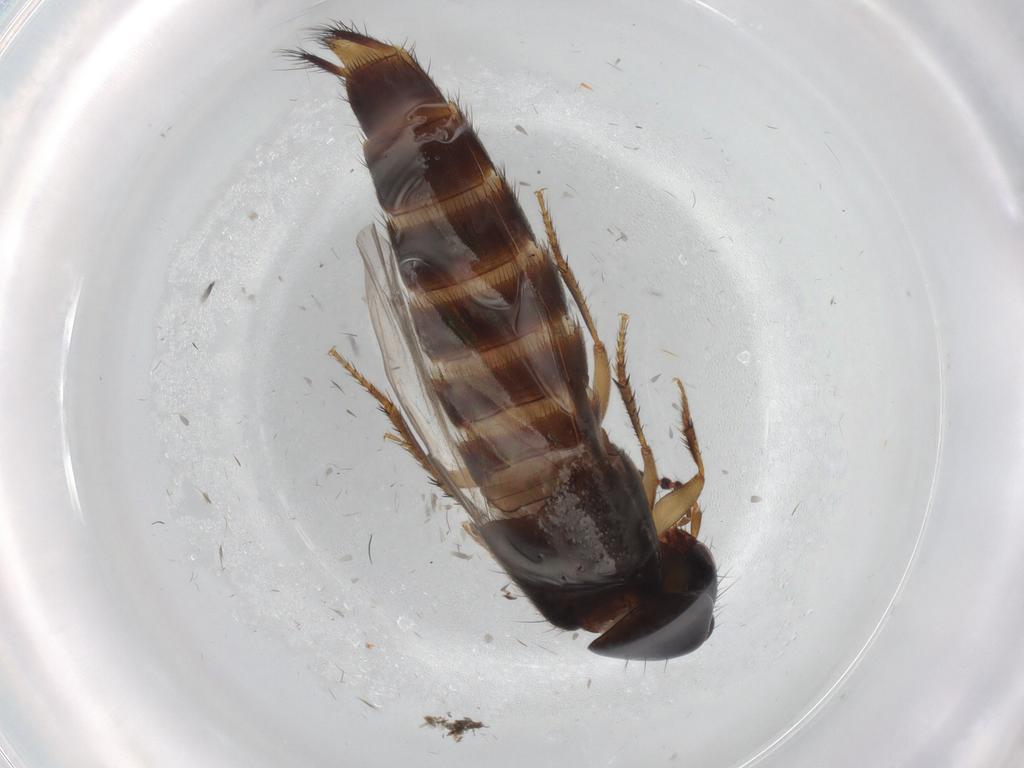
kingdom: Animalia
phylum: Arthropoda
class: Insecta
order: Coleoptera
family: Staphylinidae
